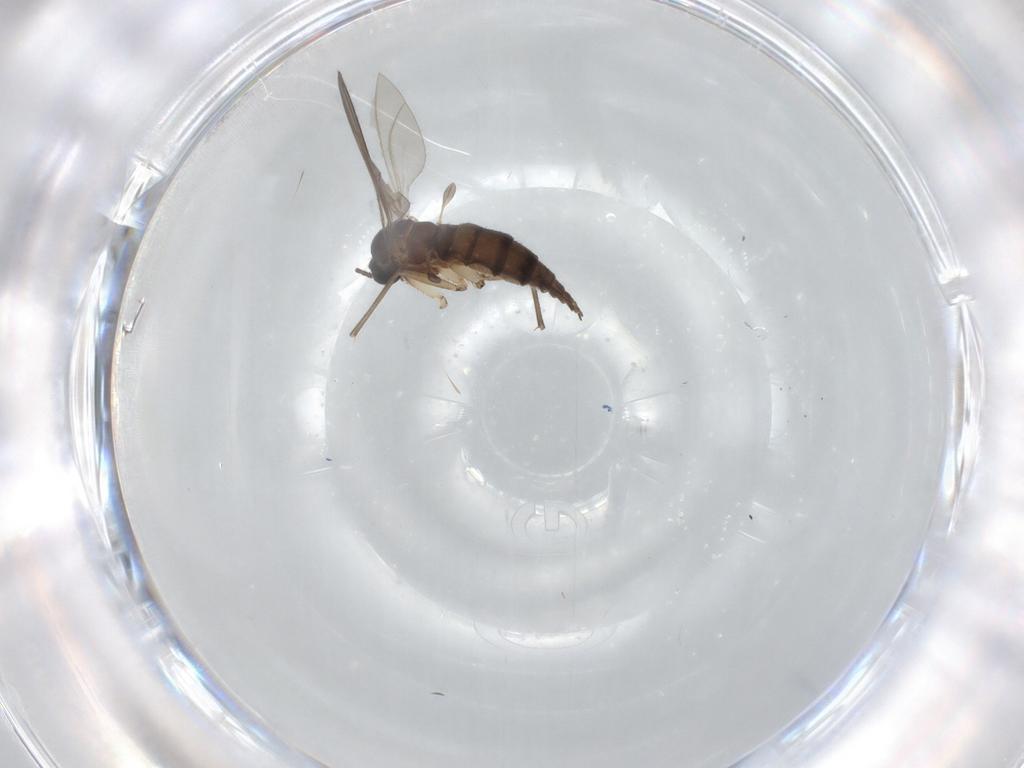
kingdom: Animalia
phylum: Arthropoda
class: Insecta
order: Diptera
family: Sciaridae
